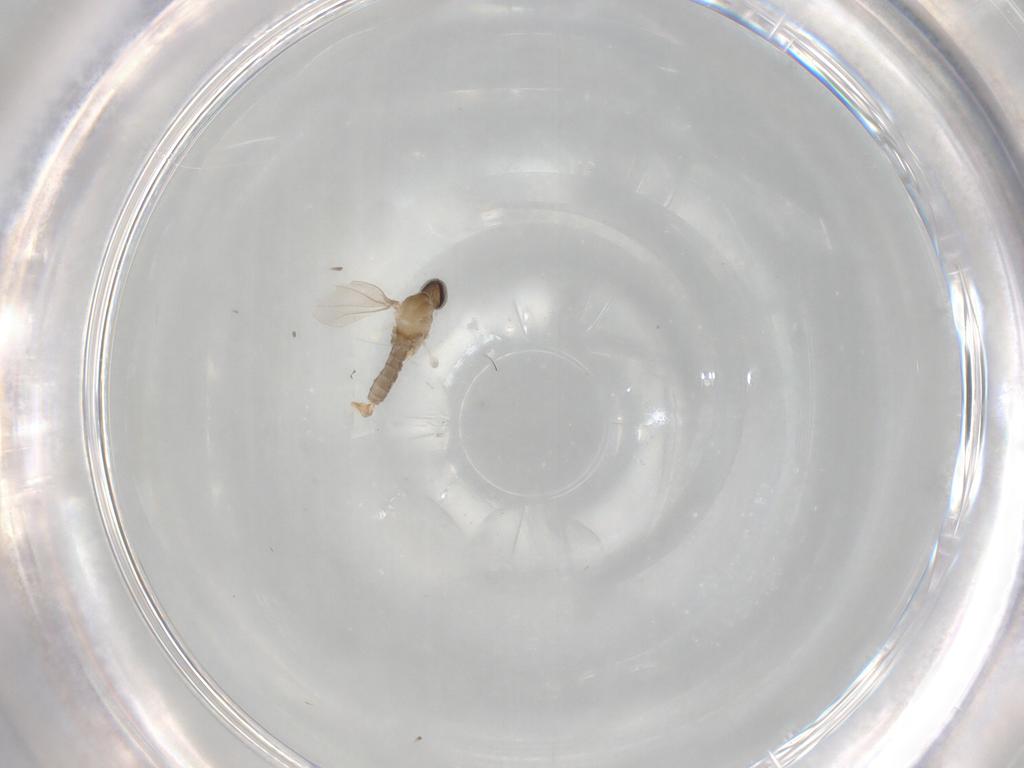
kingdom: Animalia
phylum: Arthropoda
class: Insecta
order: Diptera
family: Cecidomyiidae
